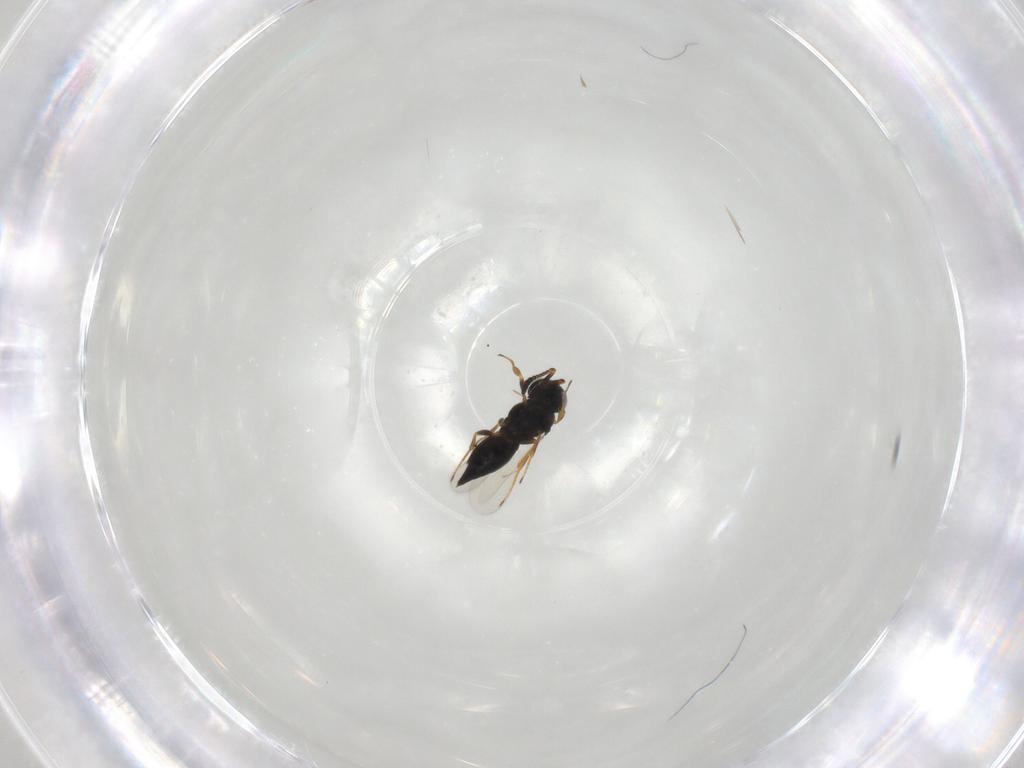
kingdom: Animalia
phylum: Arthropoda
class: Insecta
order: Hymenoptera
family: Scelionidae
